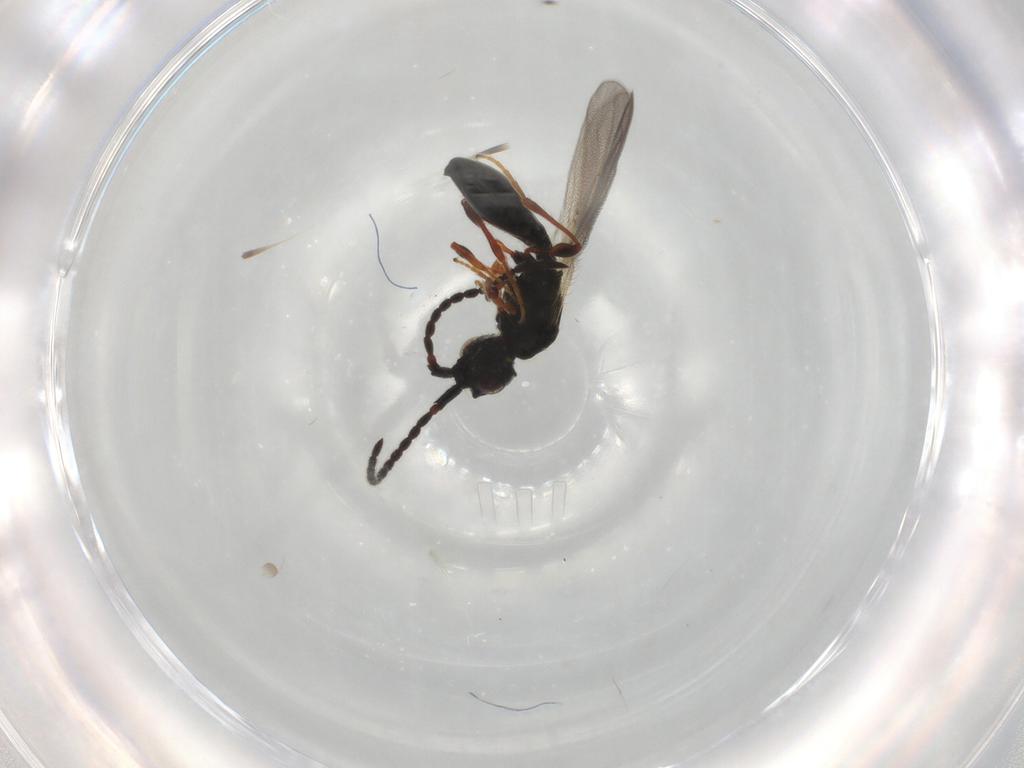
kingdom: Animalia
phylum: Arthropoda
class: Insecta
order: Hymenoptera
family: Diapriidae
